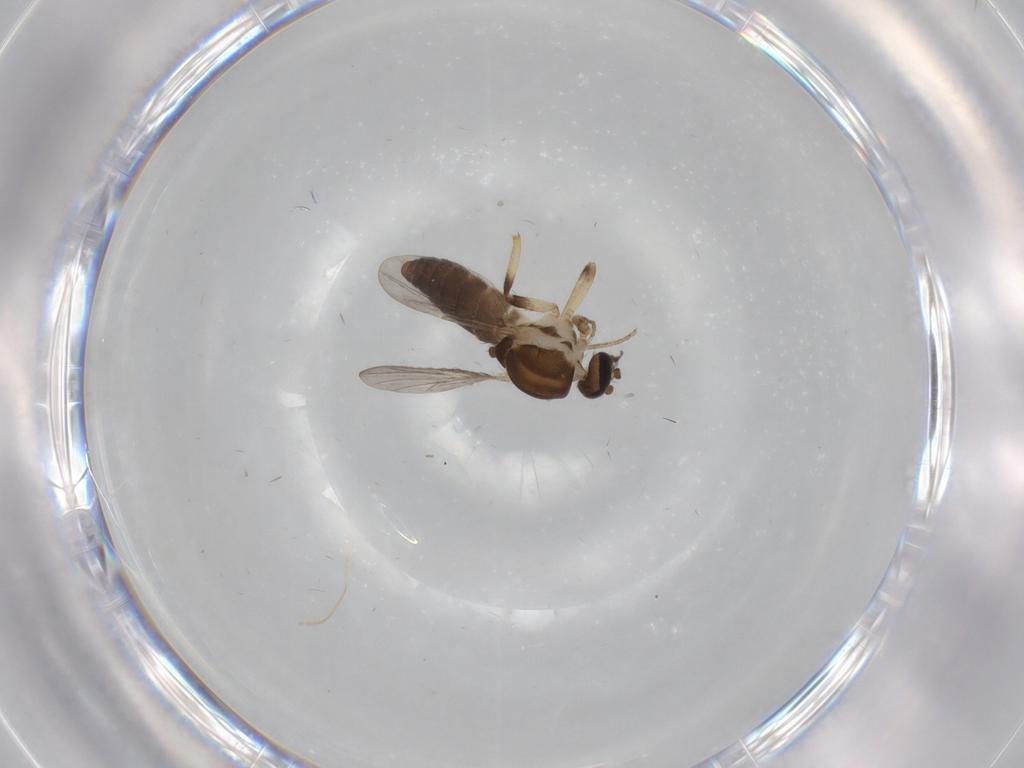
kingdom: Animalia
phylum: Arthropoda
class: Insecta
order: Diptera
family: Ceratopogonidae
